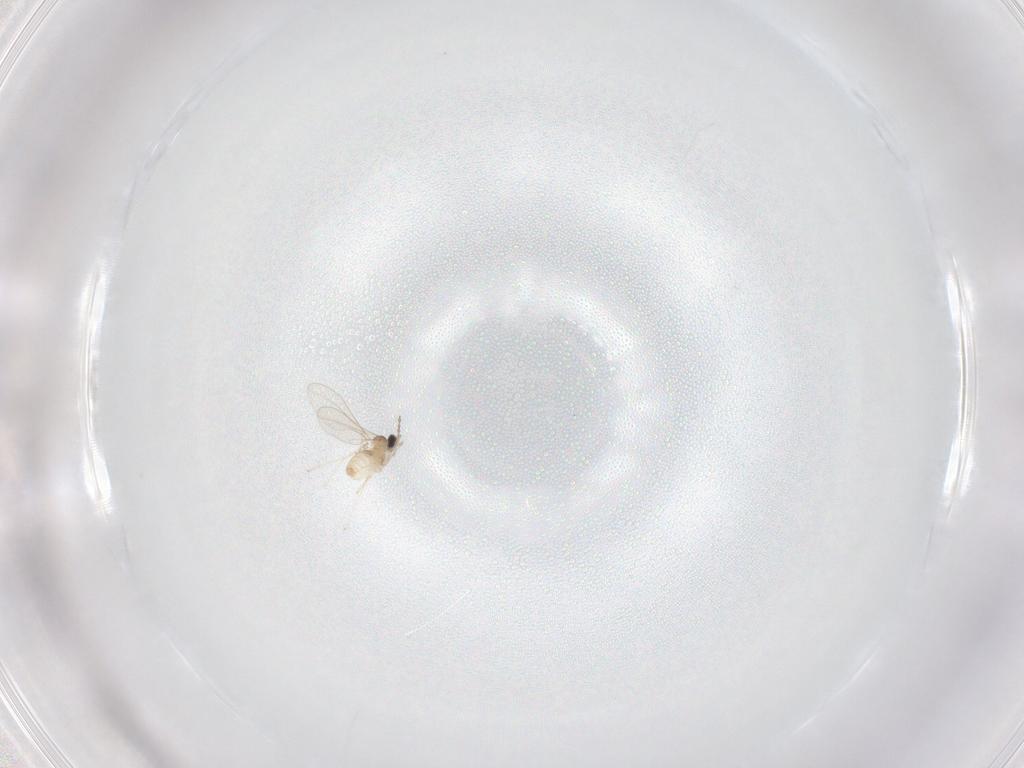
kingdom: Animalia
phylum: Arthropoda
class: Insecta
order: Diptera
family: Cecidomyiidae
